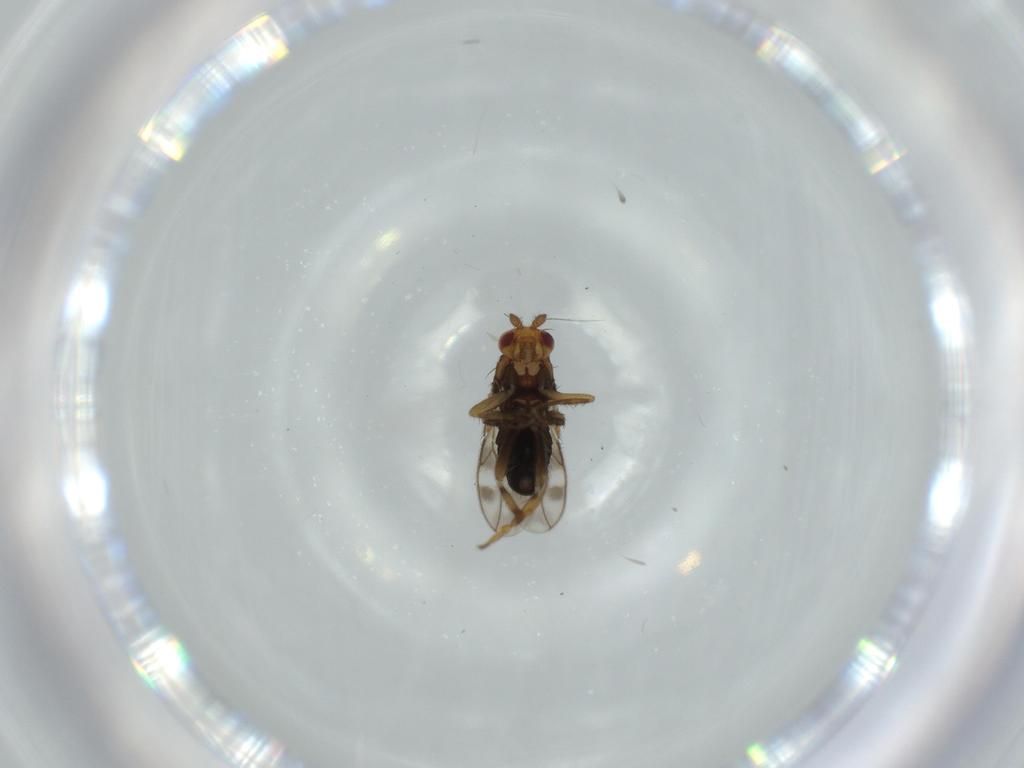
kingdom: Animalia
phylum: Arthropoda
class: Insecta
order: Diptera
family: Sphaeroceridae
